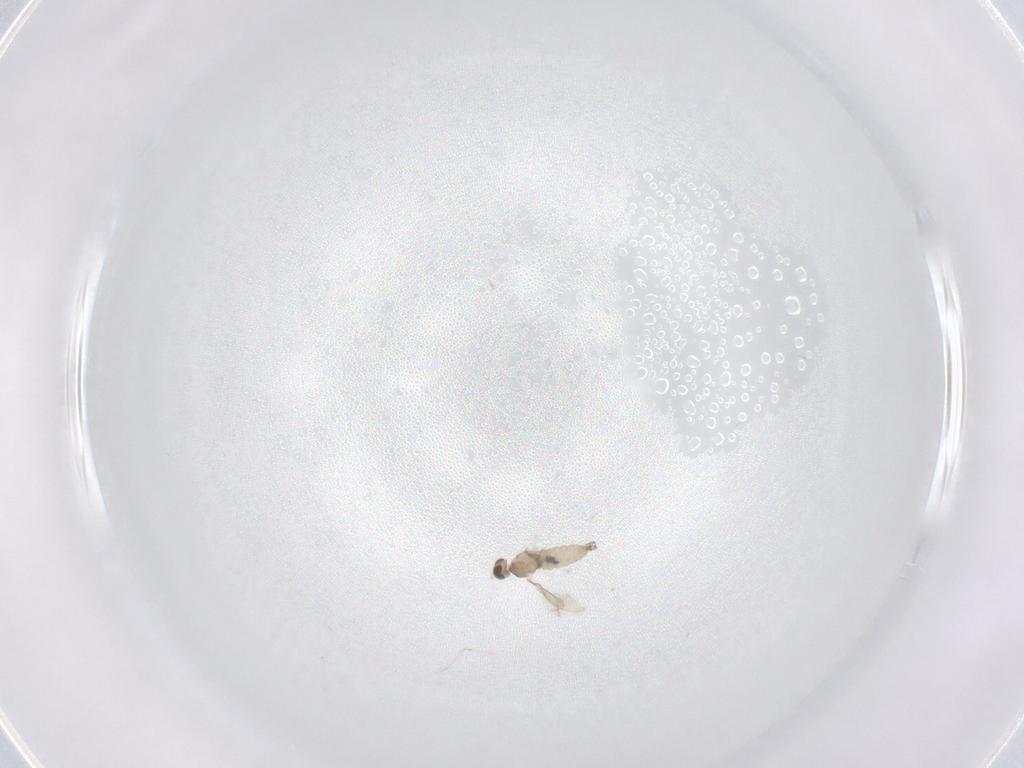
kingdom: Animalia
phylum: Arthropoda
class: Insecta
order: Diptera
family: Cecidomyiidae
